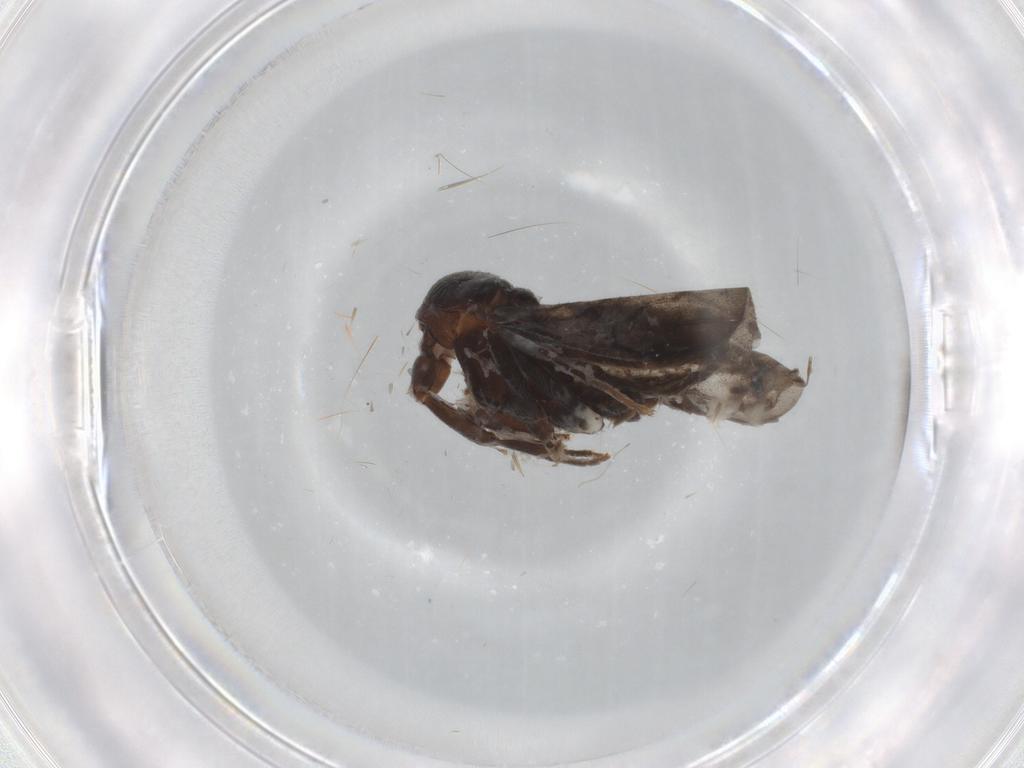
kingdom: Animalia
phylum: Arthropoda
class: Insecta
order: Diptera
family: Phoridae
